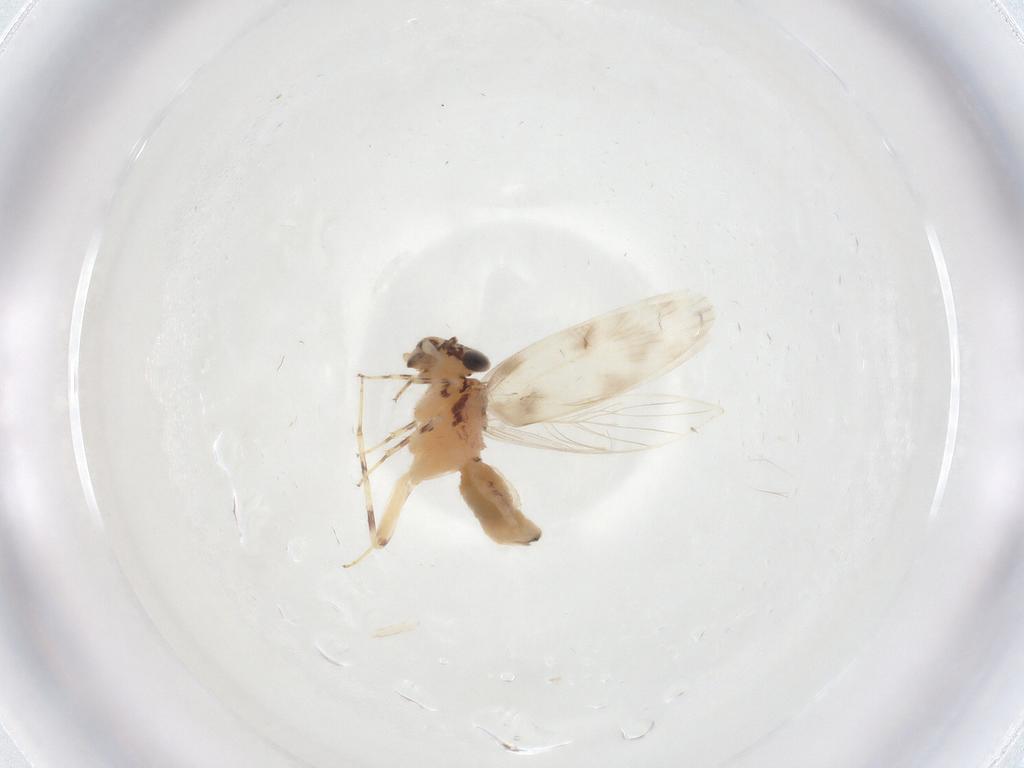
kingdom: Animalia
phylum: Arthropoda
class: Insecta
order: Psocodea
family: Lepidopsocidae
